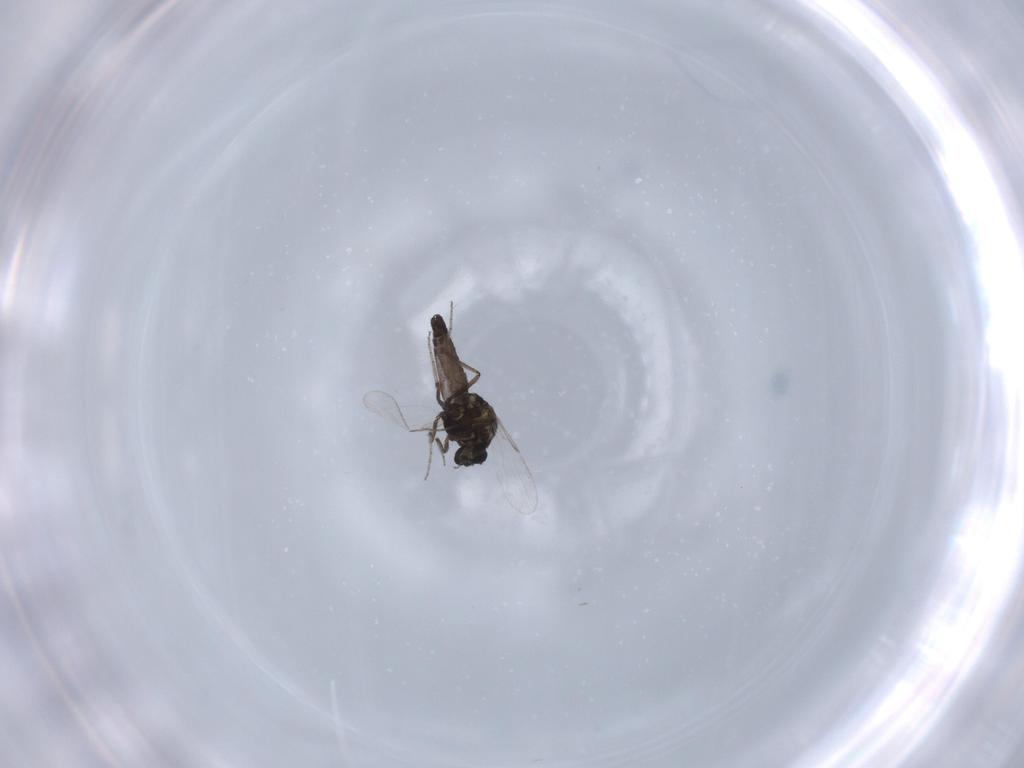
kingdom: Animalia
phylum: Arthropoda
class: Insecta
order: Diptera
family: Ceratopogonidae
